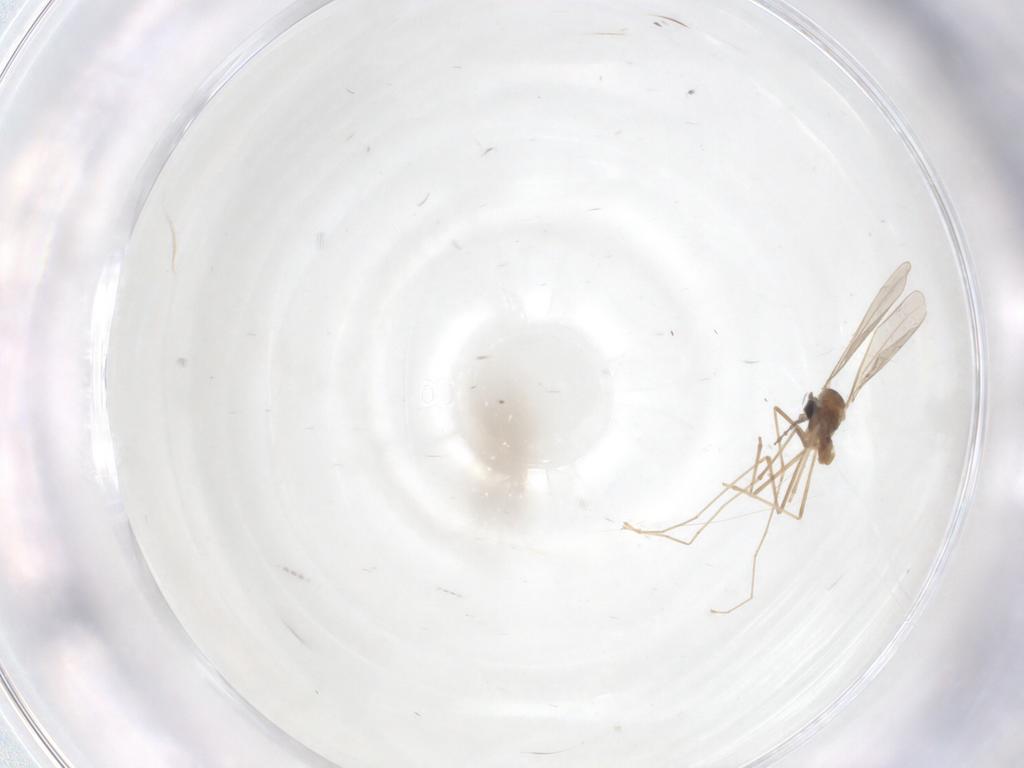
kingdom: Animalia
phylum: Arthropoda
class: Insecta
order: Diptera
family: Cecidomyiidae
